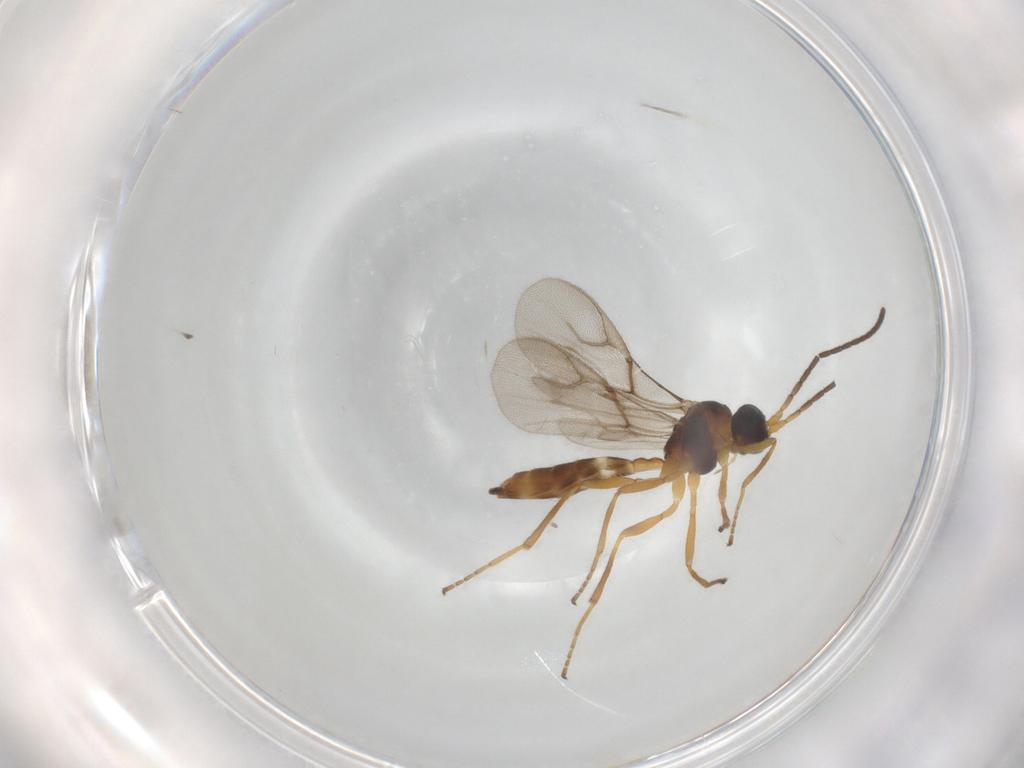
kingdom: Animalia
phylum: Arthropoda
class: Insecta
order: Hymenoptera
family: Braconidae
